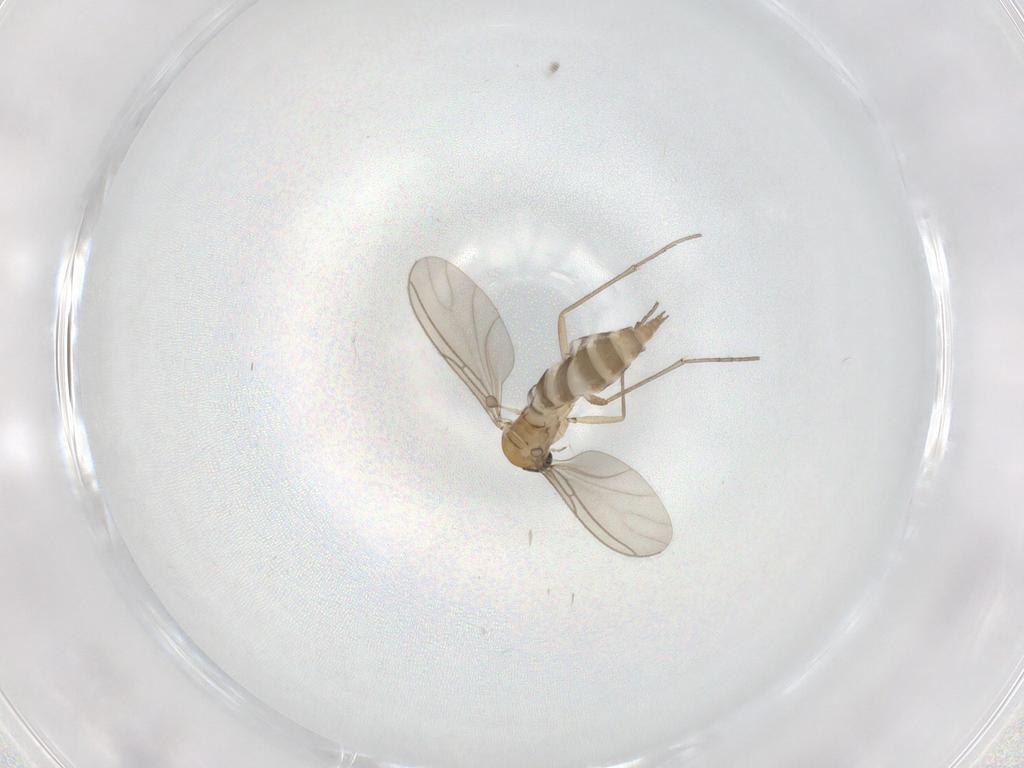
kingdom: Animalia
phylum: Arthropoda
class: Insecta
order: Diptera
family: Sciaridae
